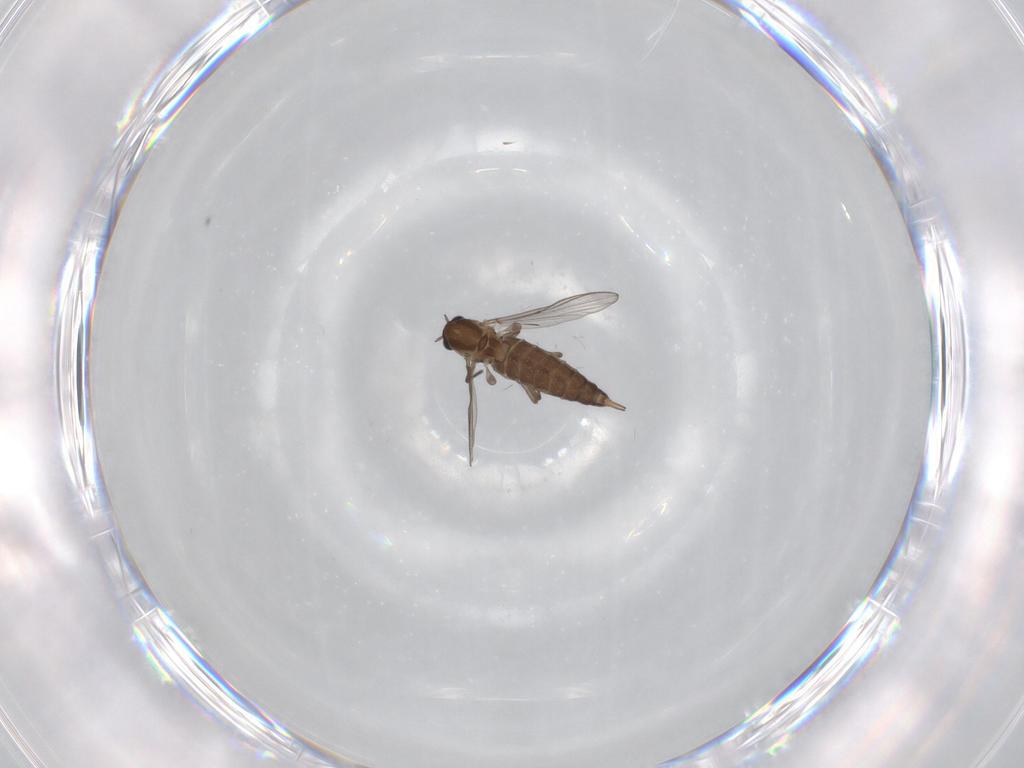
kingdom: Animalia
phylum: Arthropoda
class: Insecta
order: Diptera
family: Chironomidae
